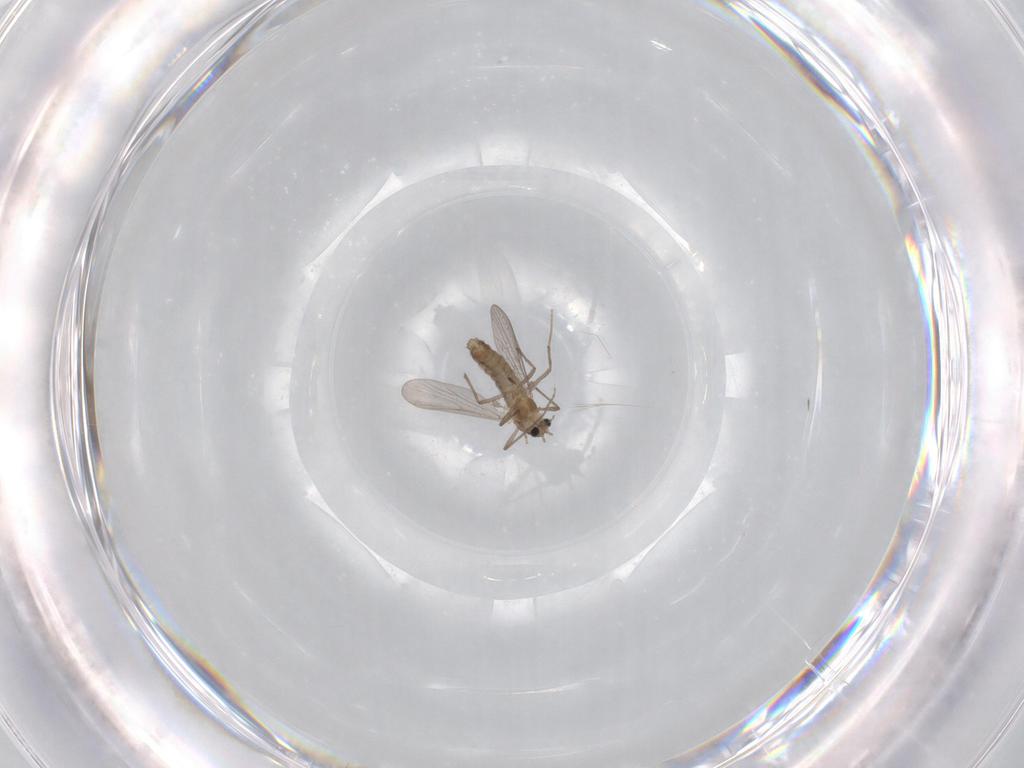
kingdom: Animalia
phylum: Arthropoda
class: Insecta
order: Diptera
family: Chironomidae
